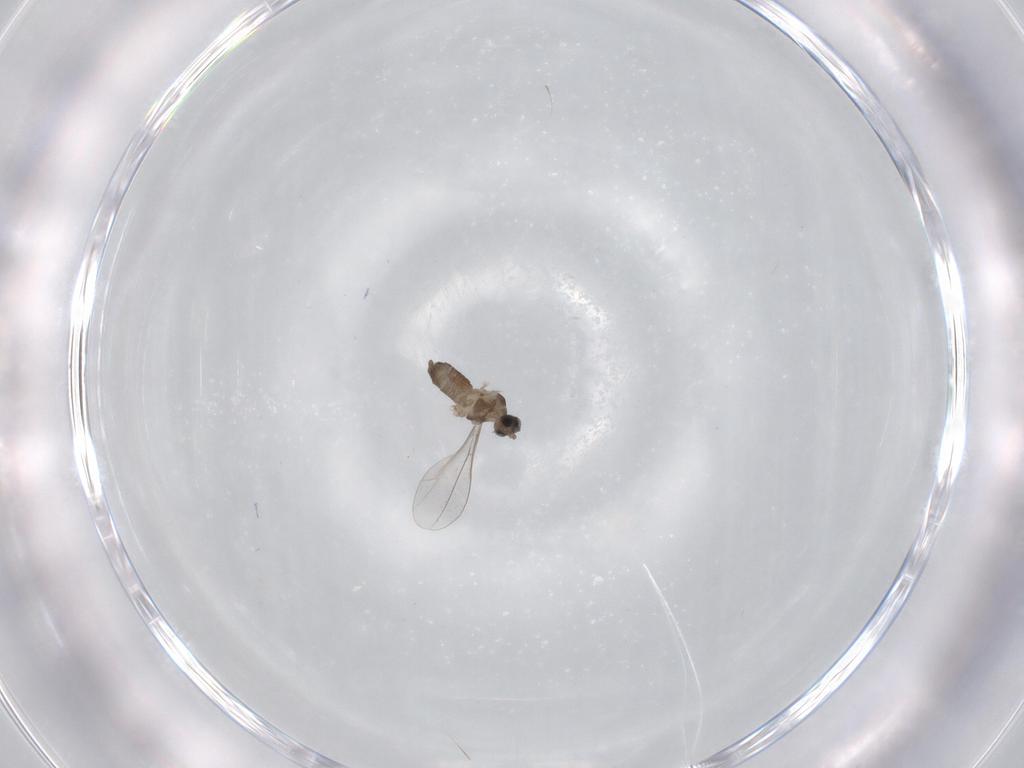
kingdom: Animalia
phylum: Arthropoda
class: Insecta
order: Diptera
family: Cecidomyiidae
